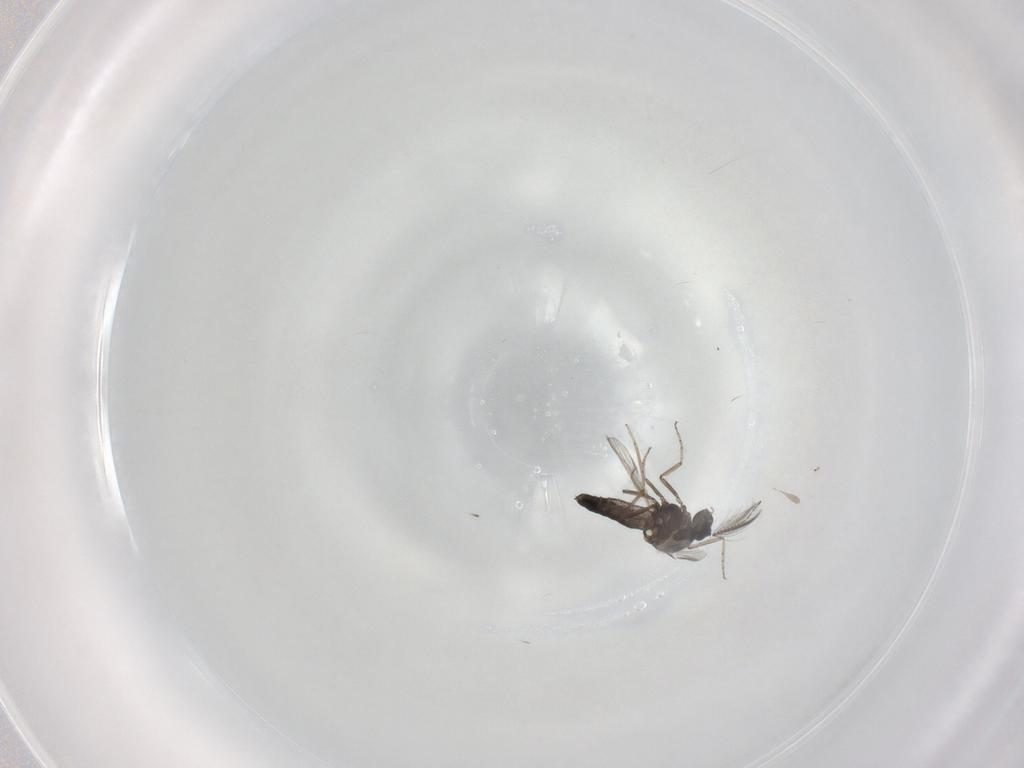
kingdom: Animalia
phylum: Arthropoda
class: Insecta
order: Diptera
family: Ceratopogonidae
